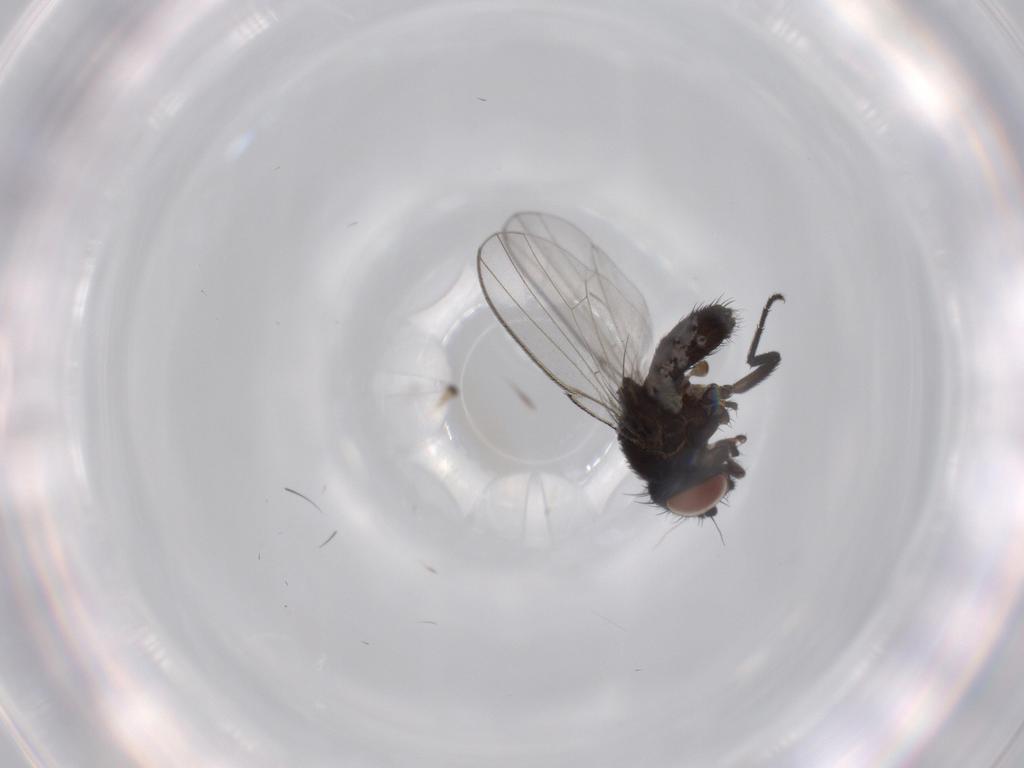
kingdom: Animalia
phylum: Arthropoda
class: Insecta
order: Diptera
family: Milichiidae
